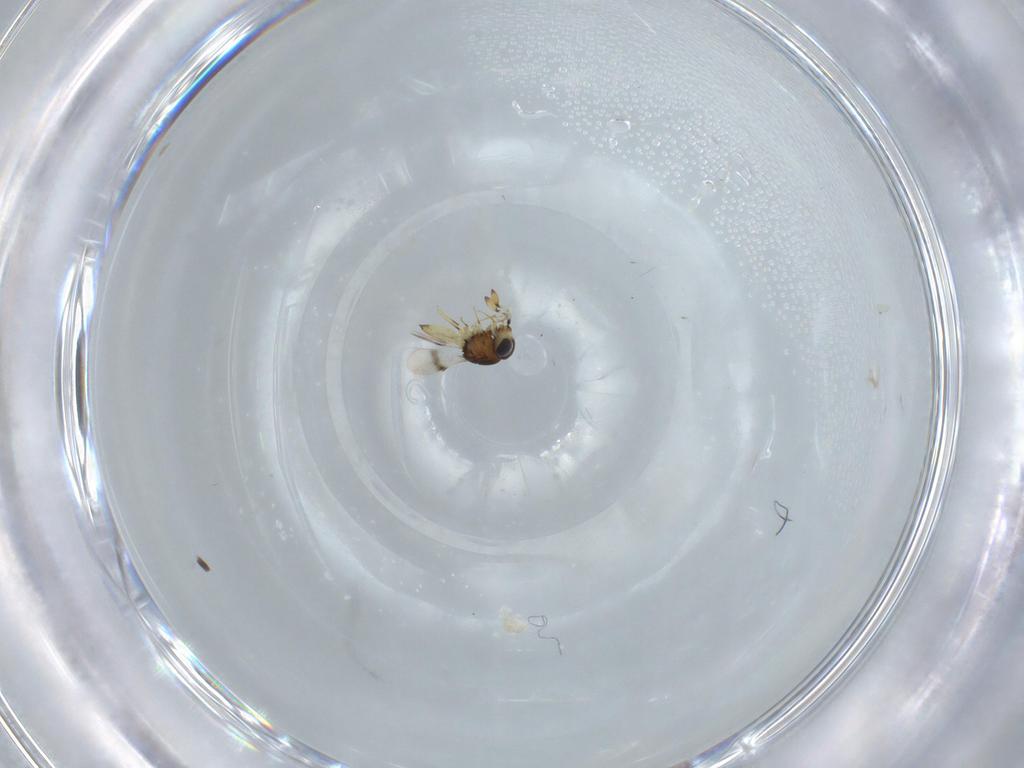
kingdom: Animalia
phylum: Arthropoda
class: Insecta
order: Hymenoptera
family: Scelionidae
